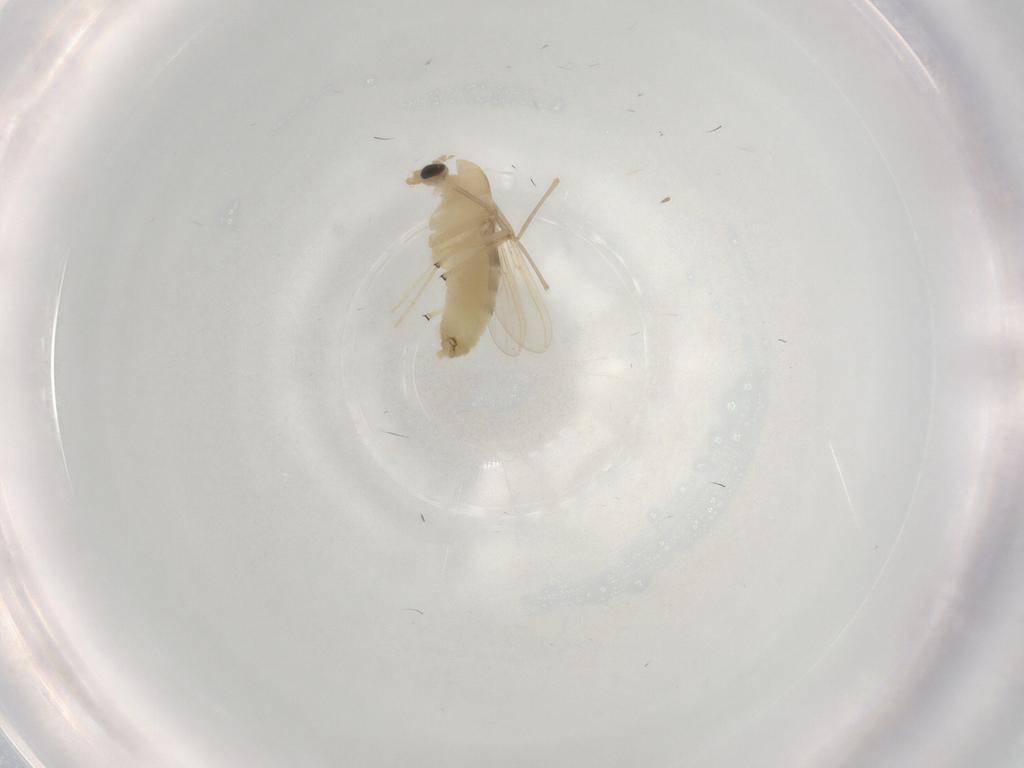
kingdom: Animalia
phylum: Arthropoda
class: Insecta
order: Diptera
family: Chironomidae
